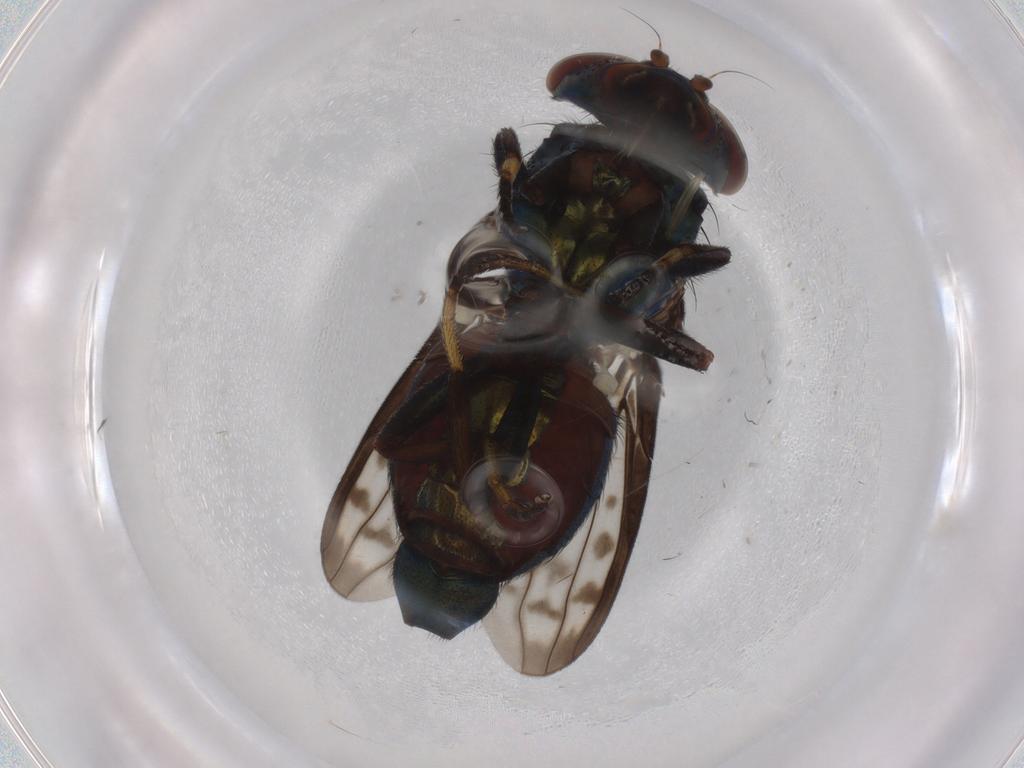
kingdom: Animalia
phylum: Arthropoda
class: Insecta
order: Diptera
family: Ulidiidae
